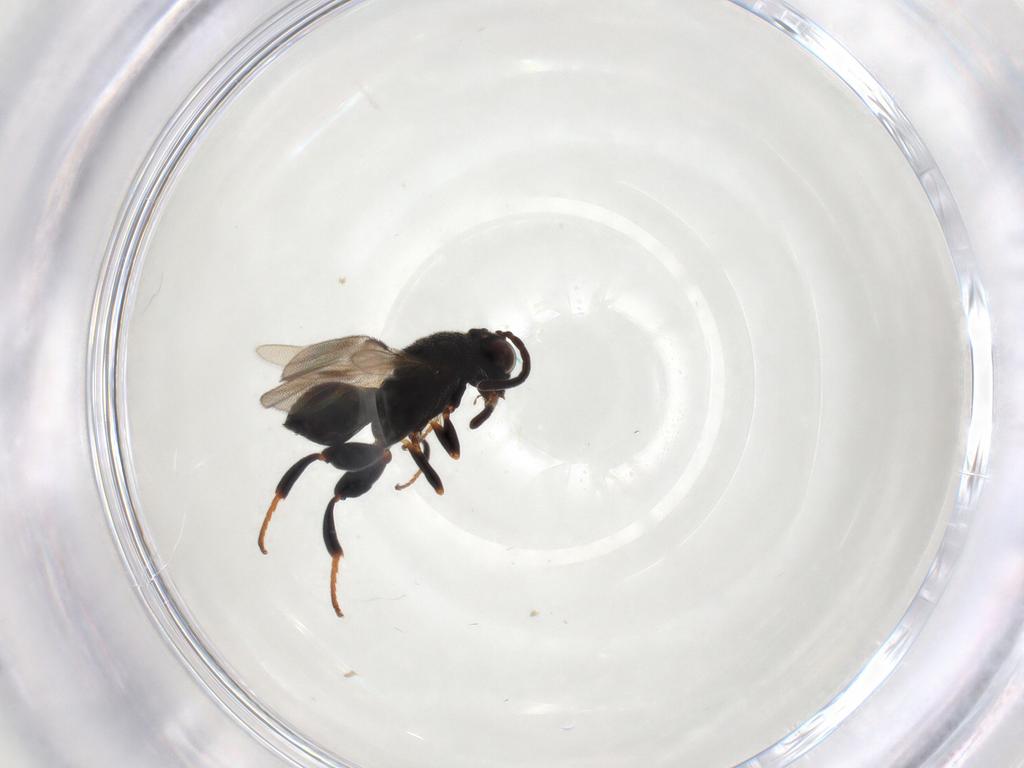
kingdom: Animalia
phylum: Arthropoda
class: Insecta
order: Hymenoptera
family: Chalcididae
